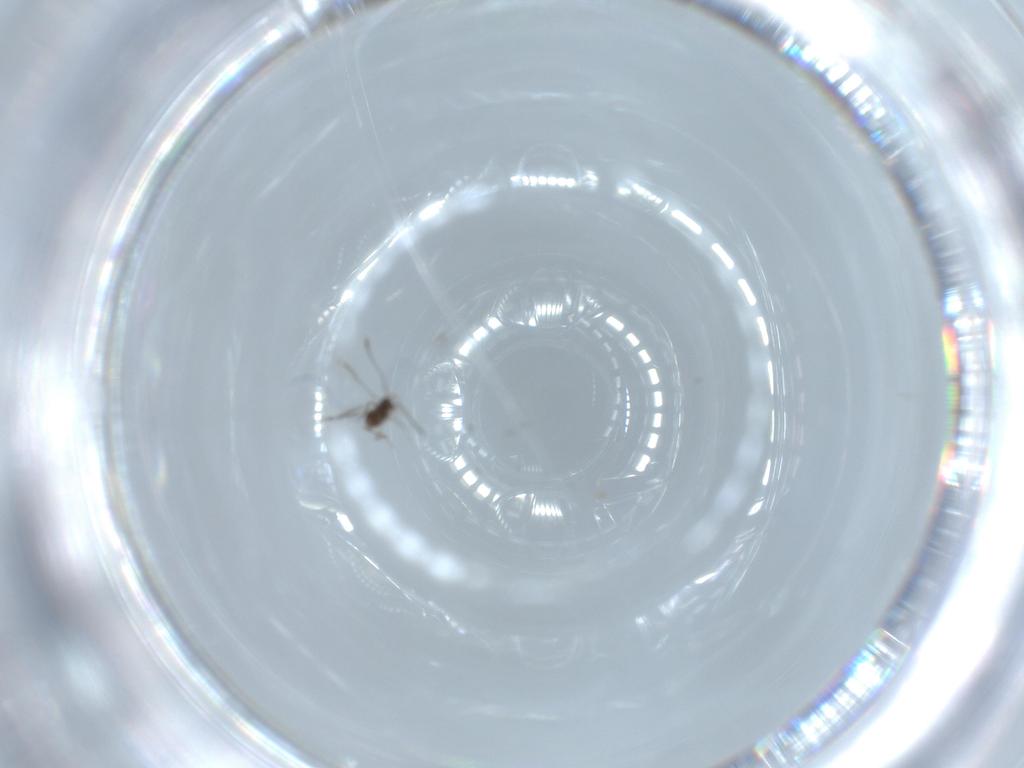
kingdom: Animalia
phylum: Arthropoda
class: Insecta
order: Hymenoptera
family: Mymaridae
